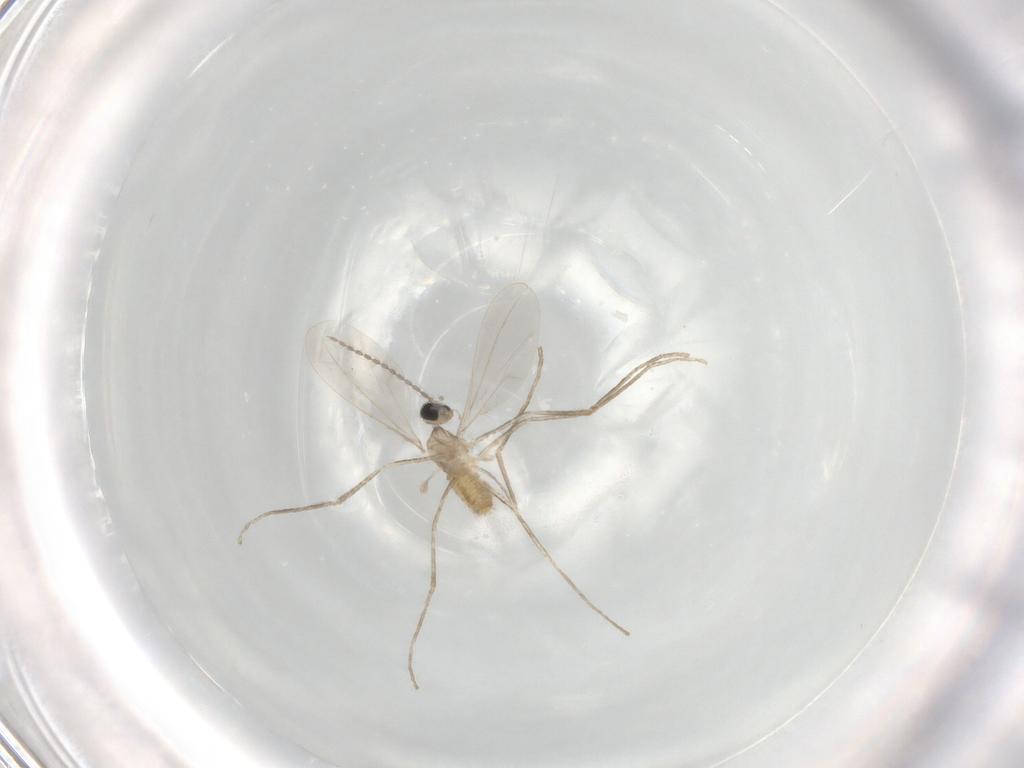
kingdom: Animalia
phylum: Arthropoda
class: Insecta
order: Diptera
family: Cecidomyiidae
